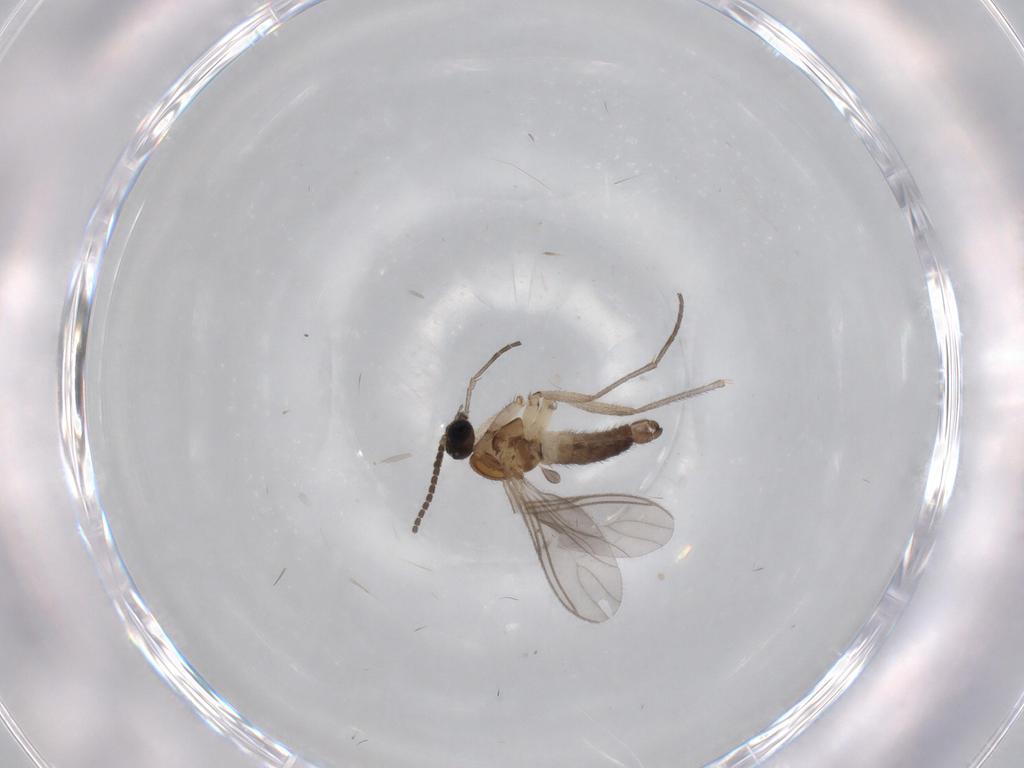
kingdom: Animalia
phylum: Arthropoda
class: Insecta
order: Diptera
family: Sciaridae
